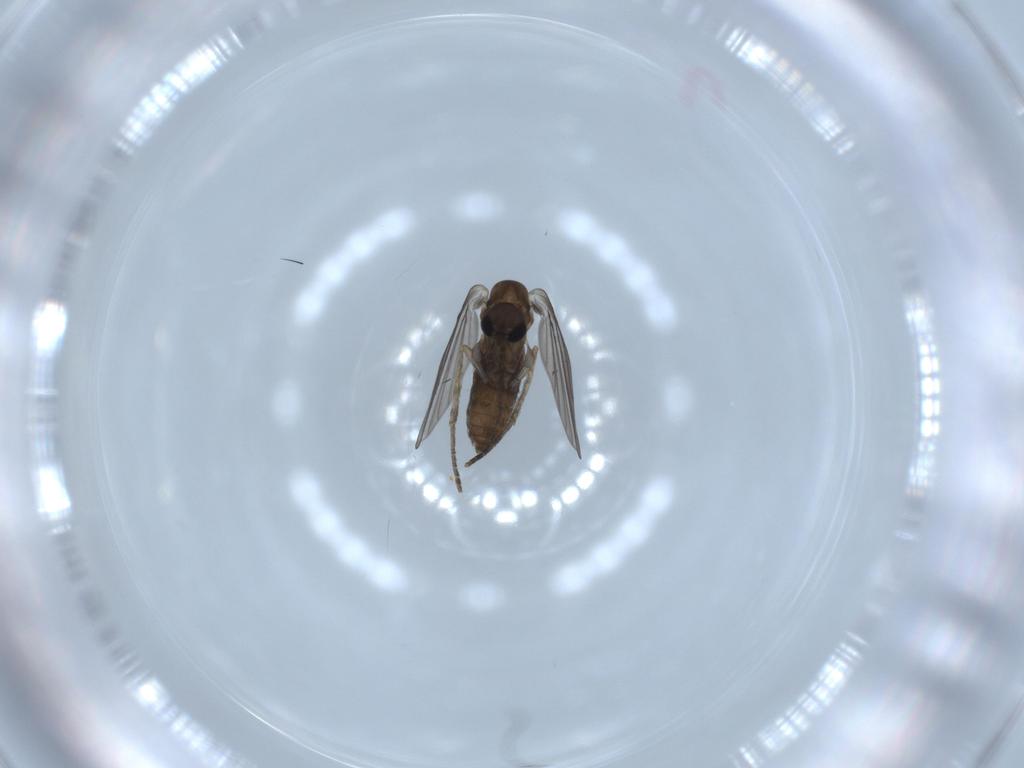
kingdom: Animalia
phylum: Arthropoda
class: Insecta
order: Diptera
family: Psychodidae
